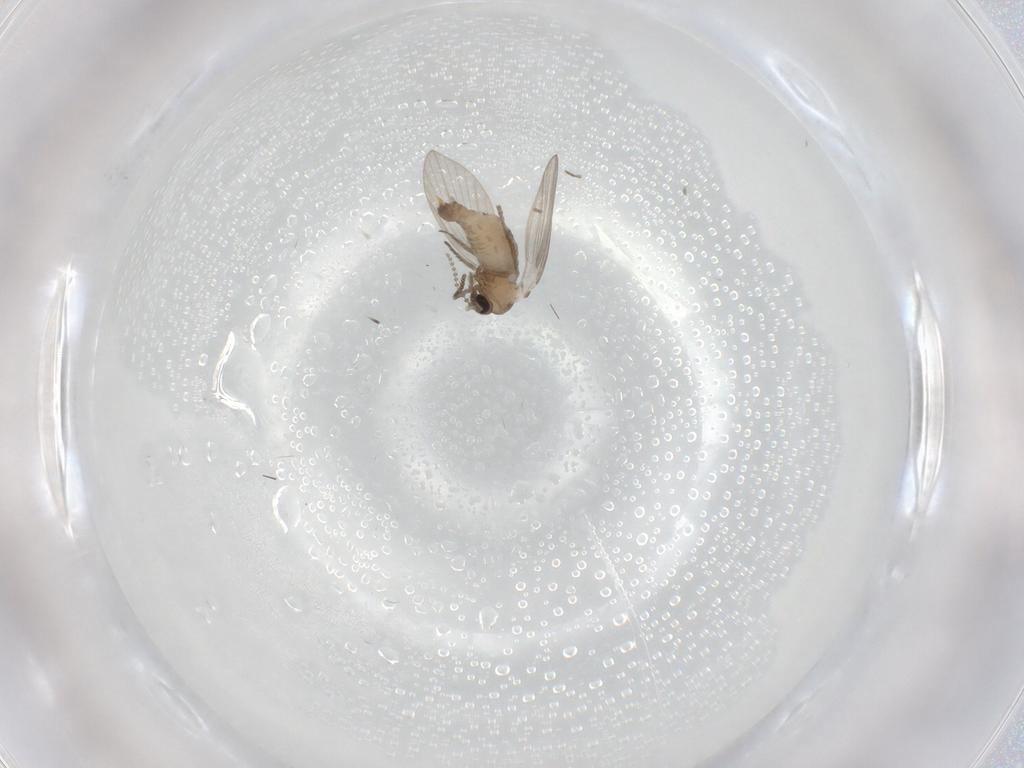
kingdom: Animalia
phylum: Arthropoda
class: Insecta
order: Diptera
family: Psychodidae
